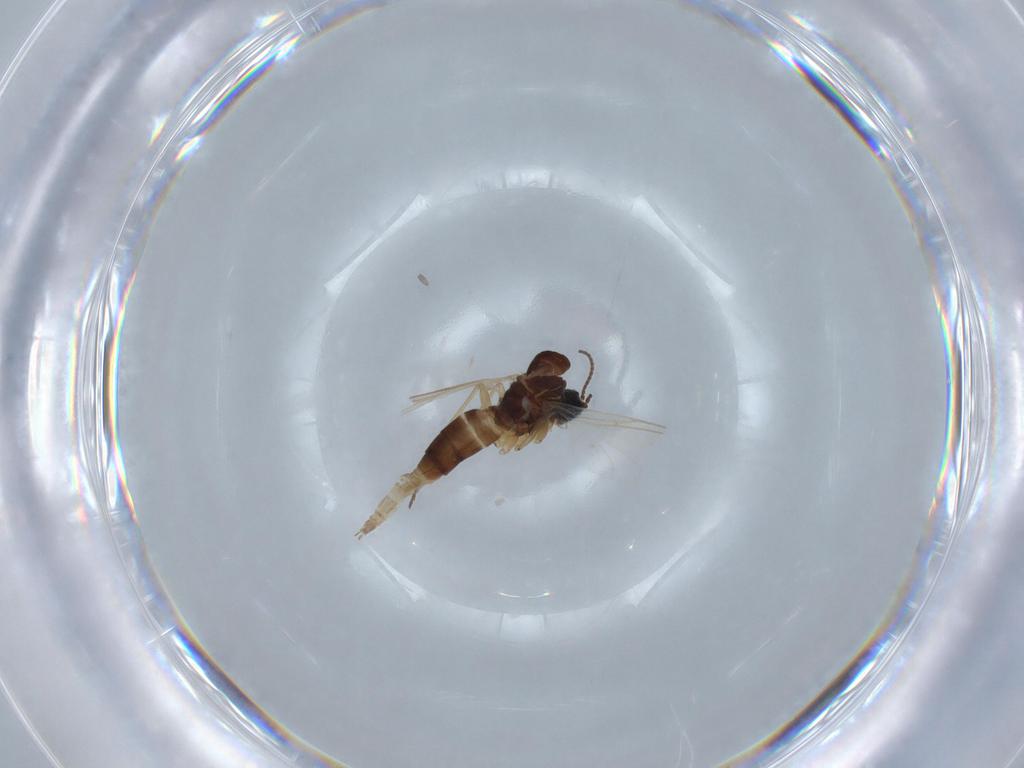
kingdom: Animalia
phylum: Arthropoda
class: Insecta
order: Diptera
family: Sciaridae
